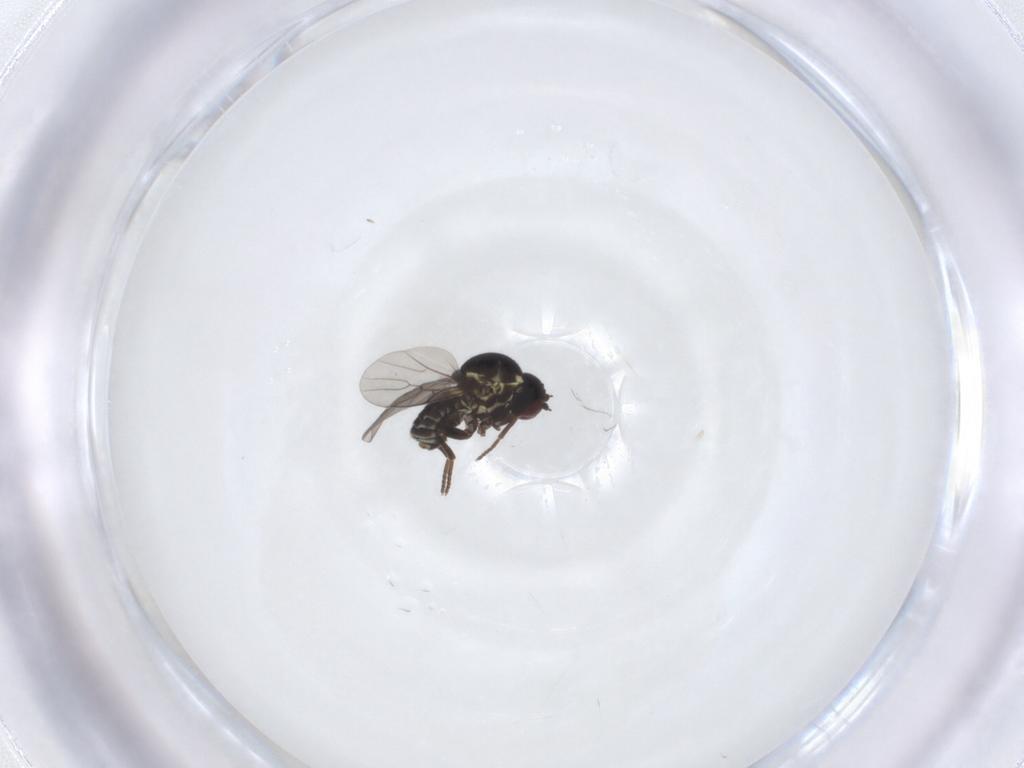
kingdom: Animalia
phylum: Arthropoda
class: Insecta
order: Diptera
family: Bombyliidae
